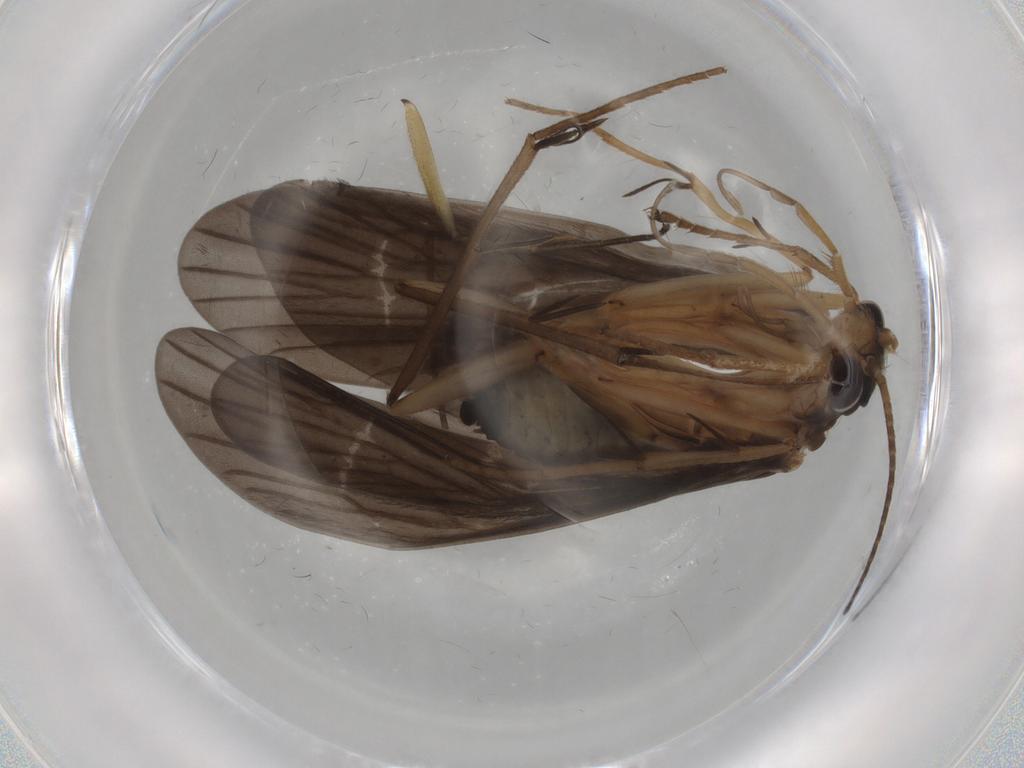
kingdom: Animalia
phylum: Arthropoda
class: Insecta
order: Trichoptera
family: Philopotamidae
